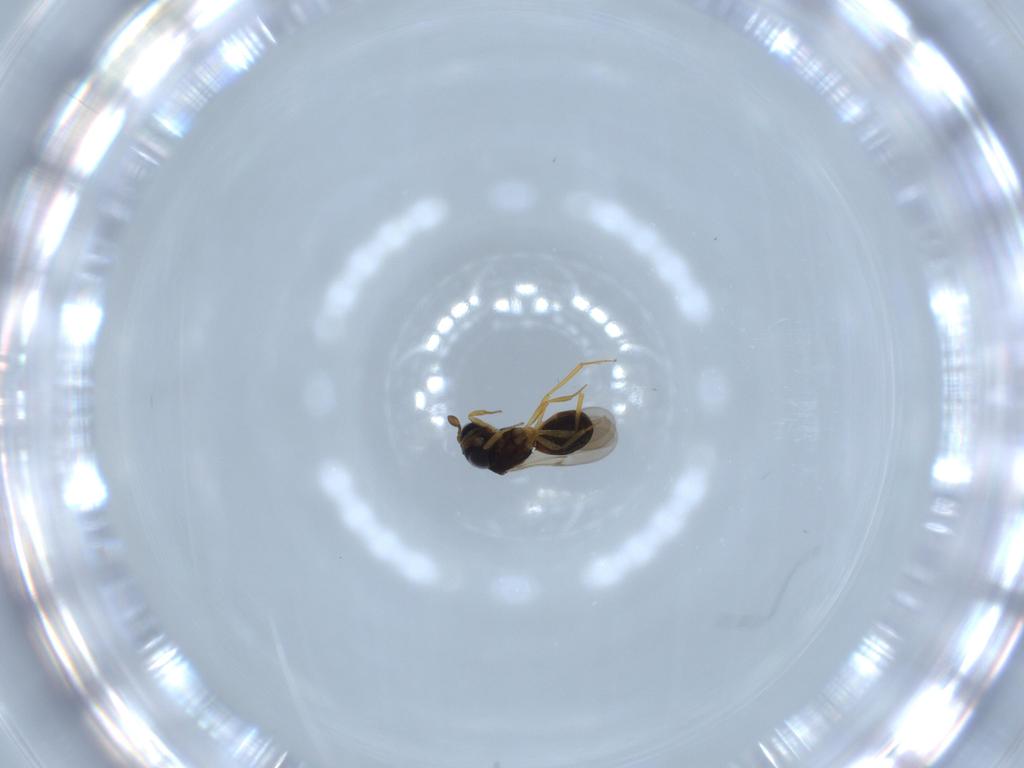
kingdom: Animalia
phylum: Arthropoda
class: Insecta
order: Hymenoptera
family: Scelionidae
